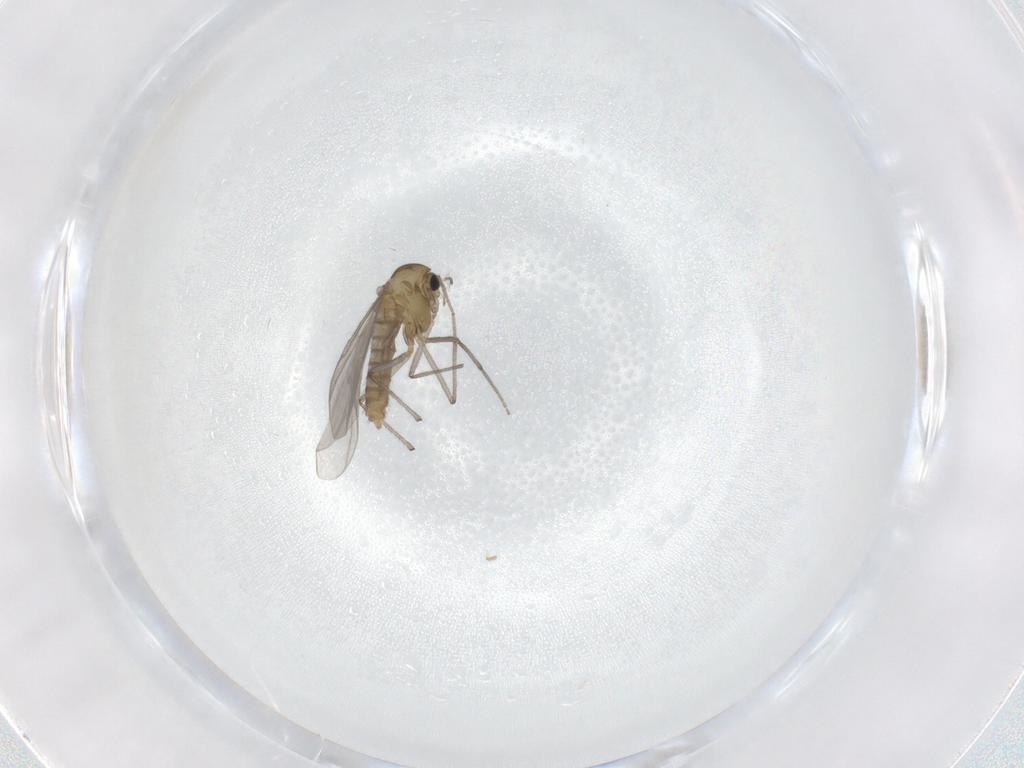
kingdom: Animalia
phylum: Arthropoda
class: Insecta
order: Diptera
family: Chironomidae
